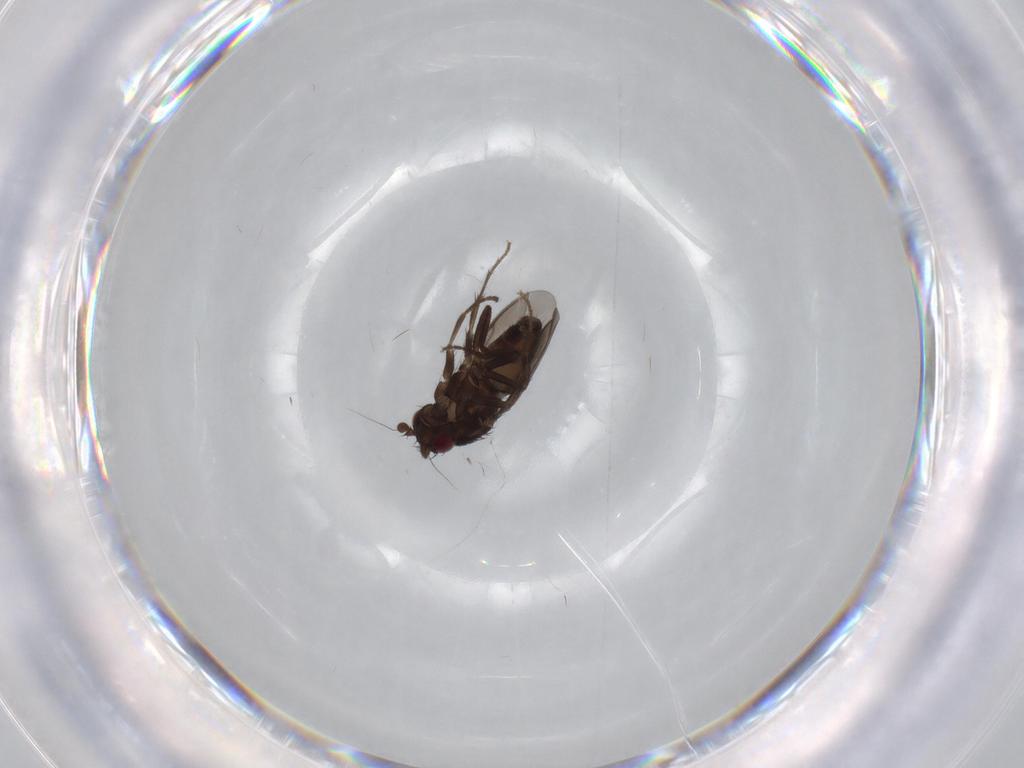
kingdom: Animalia
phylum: Arthropoda
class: Insecta
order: Diptera
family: Sphaeroceridae
